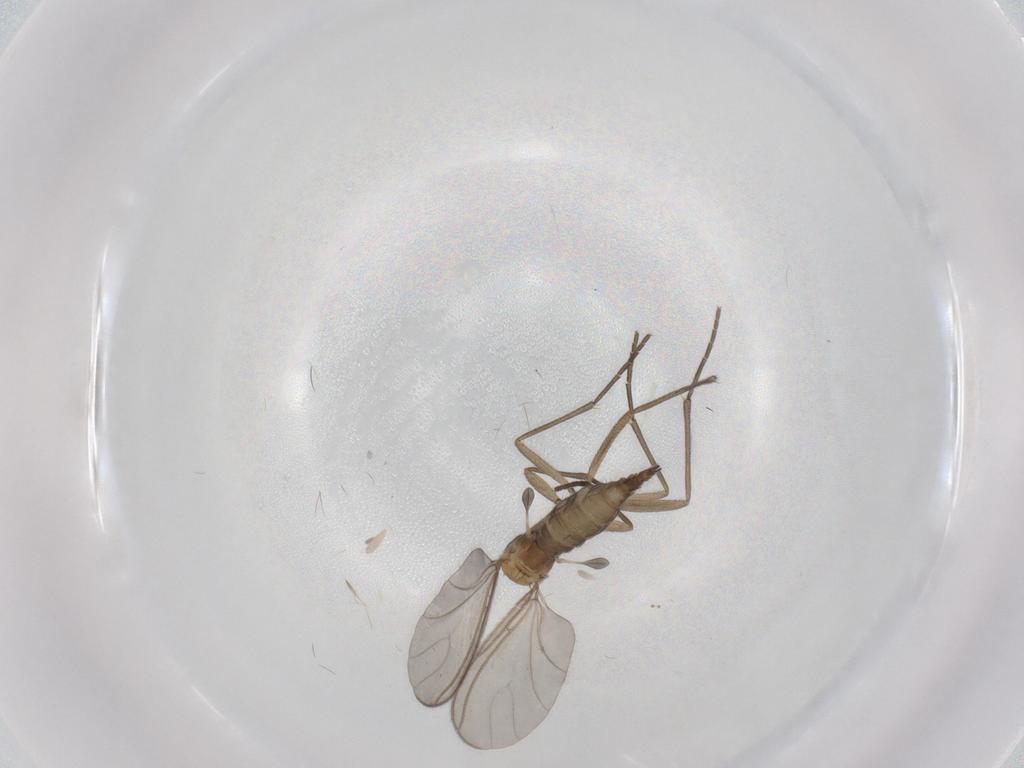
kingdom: Animalia
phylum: Arthropoda
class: Insecta
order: Diptera
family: Sciaridae
